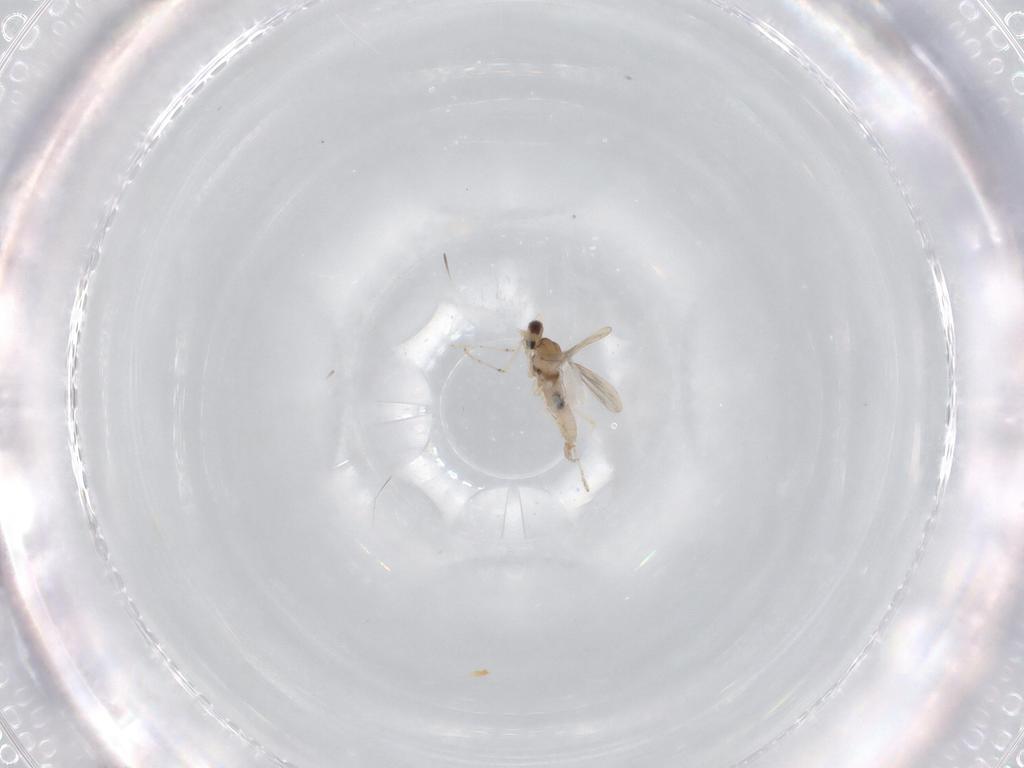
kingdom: Animalia
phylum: Arthropoda
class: Insecta
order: Diptera
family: Cecidomyiidae
